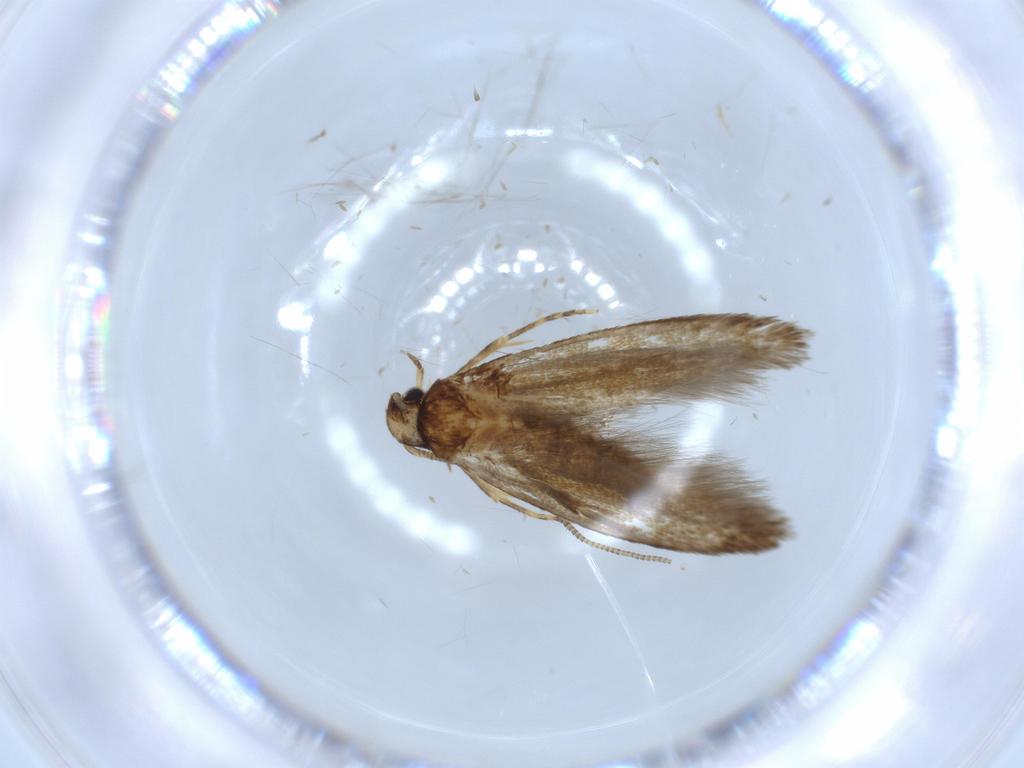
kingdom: Animalia
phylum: Arthropoda
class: Insecta
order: Lepidoptera
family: Tineidae
